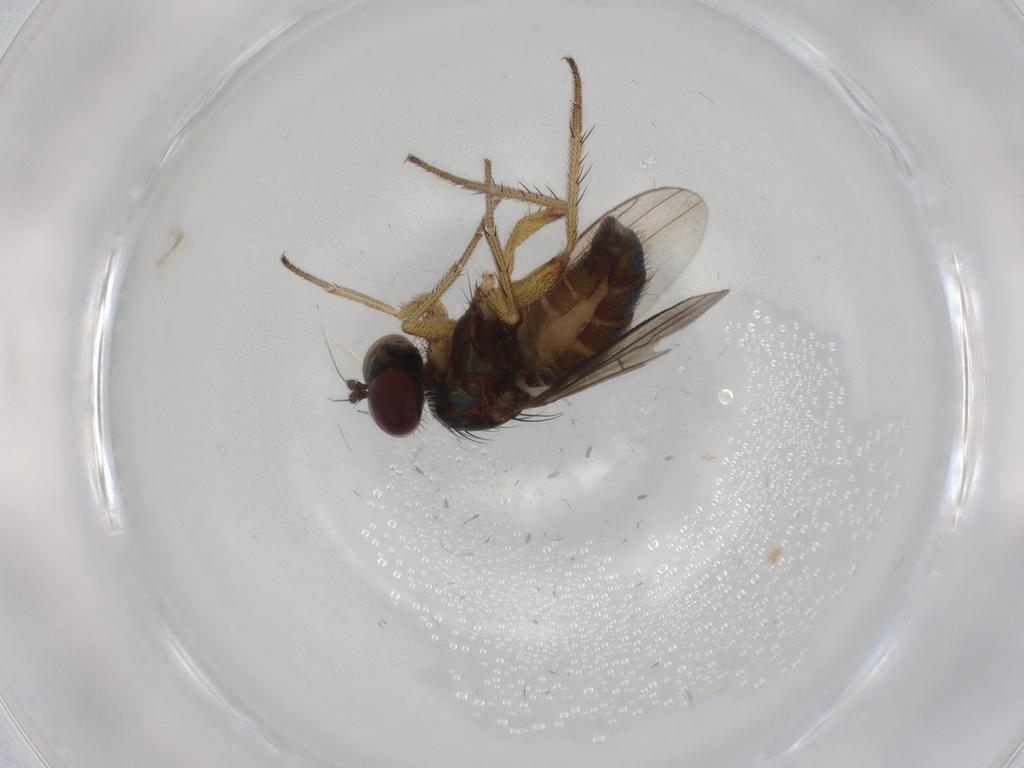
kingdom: Animalia
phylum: Arthropoda
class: Insecta
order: Diptera
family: Dolichopodidae
